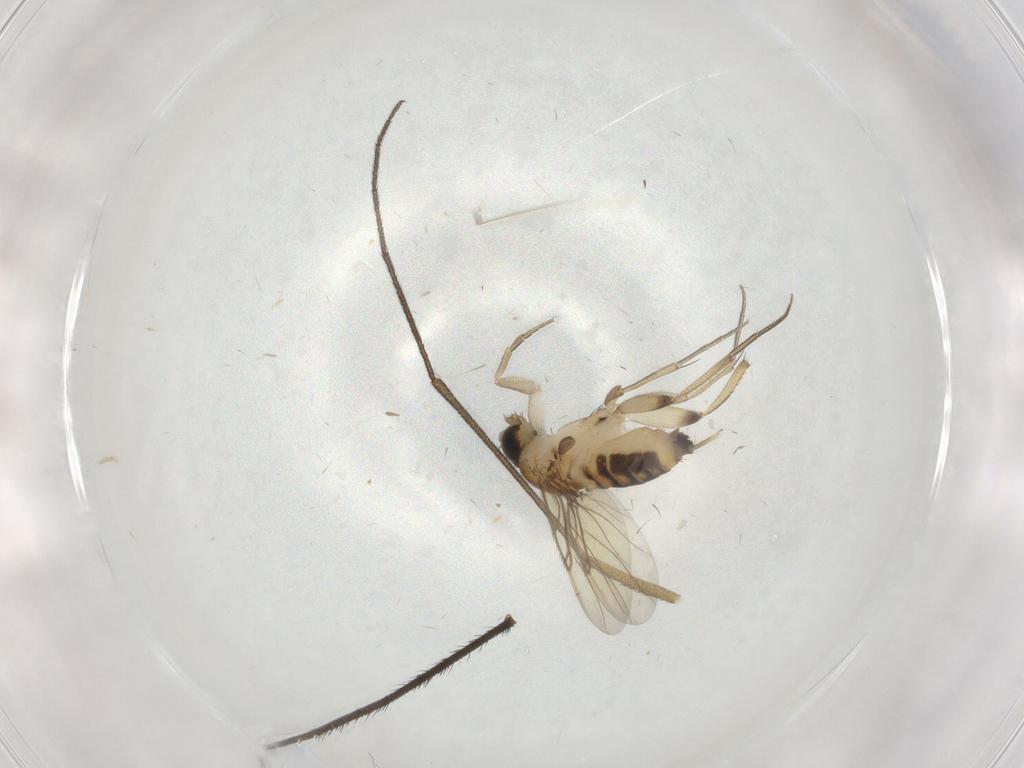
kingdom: Animalia
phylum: Arthropoda
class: Insecta
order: Diptera
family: Phoridae
